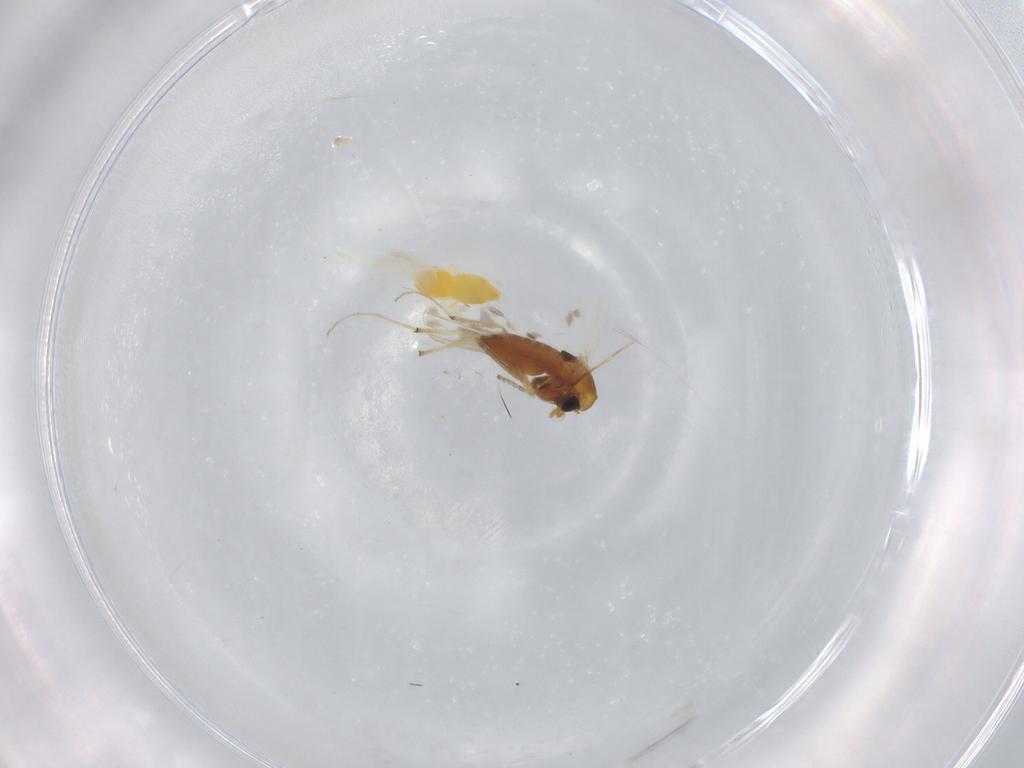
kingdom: Animalia
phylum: Arthropoda
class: Insecta
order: Diptera
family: Chironomidae
